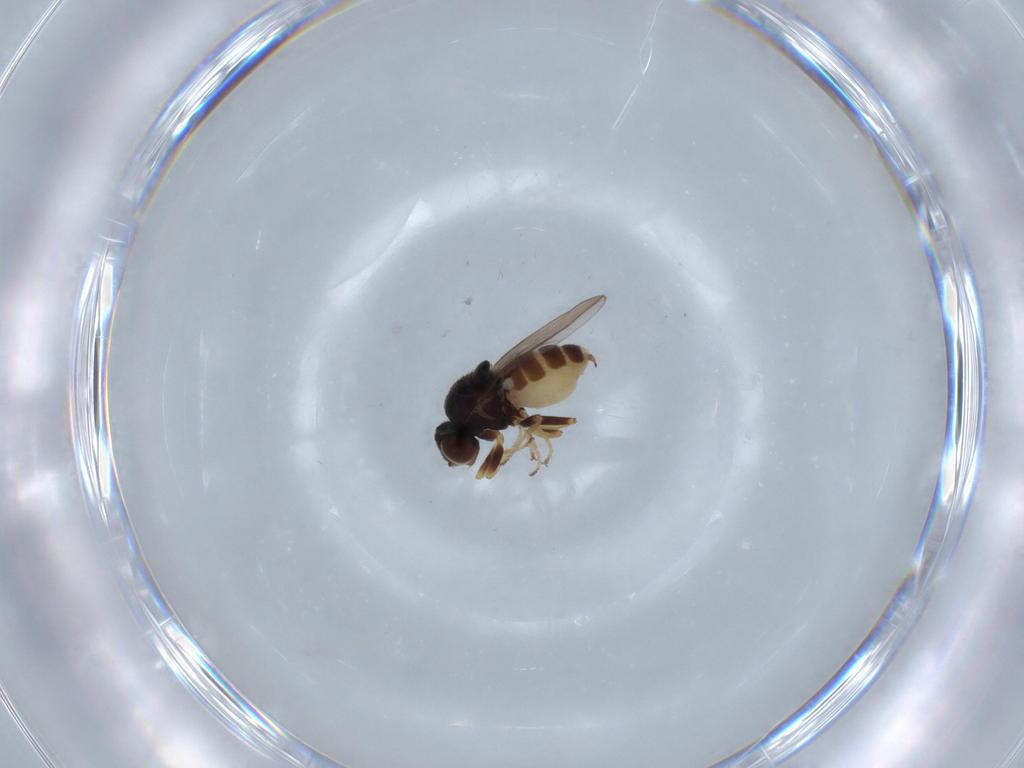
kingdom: Animalia
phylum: Arthropoda
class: Insecta
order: Diptera
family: Chloropidae
